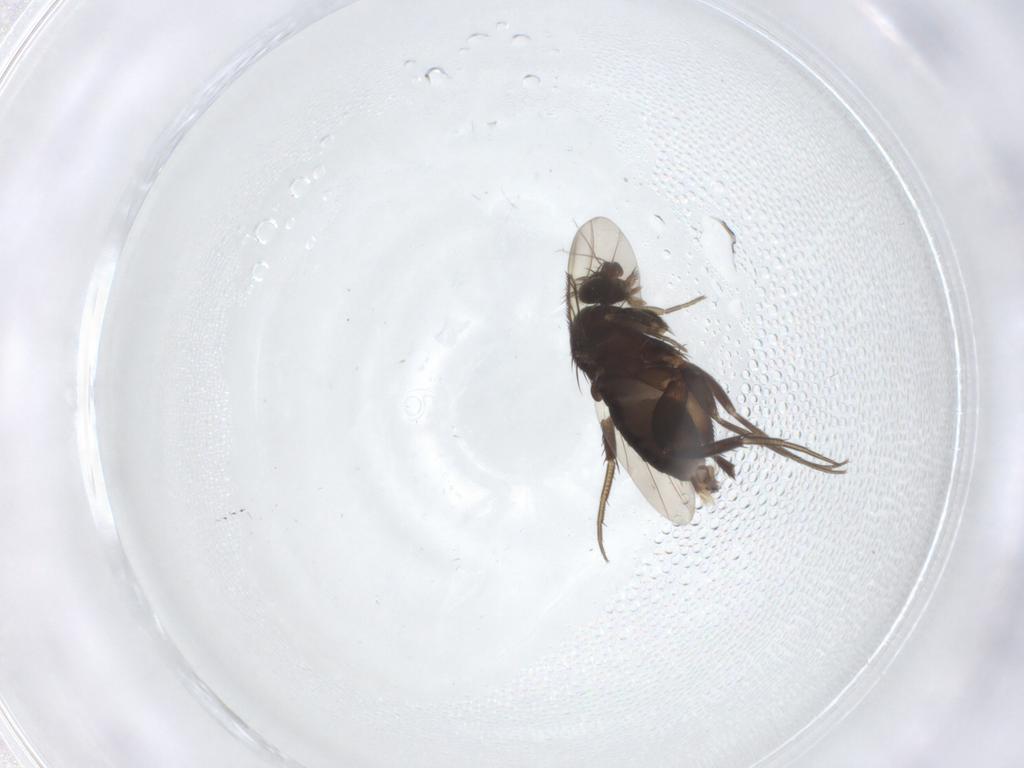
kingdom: Animalia
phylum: Arthropoda
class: Insecta
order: Diptera
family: Phoridae
